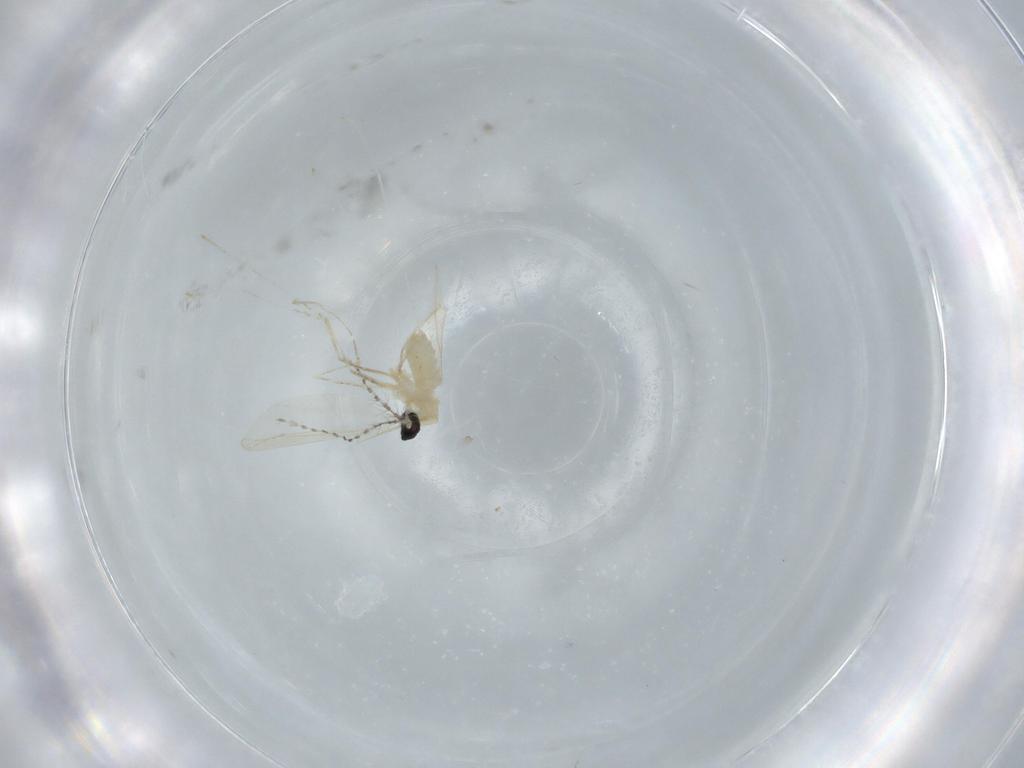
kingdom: Animalia
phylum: Arthropoda
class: Insecta
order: Diptera
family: Cecidomyiidae
